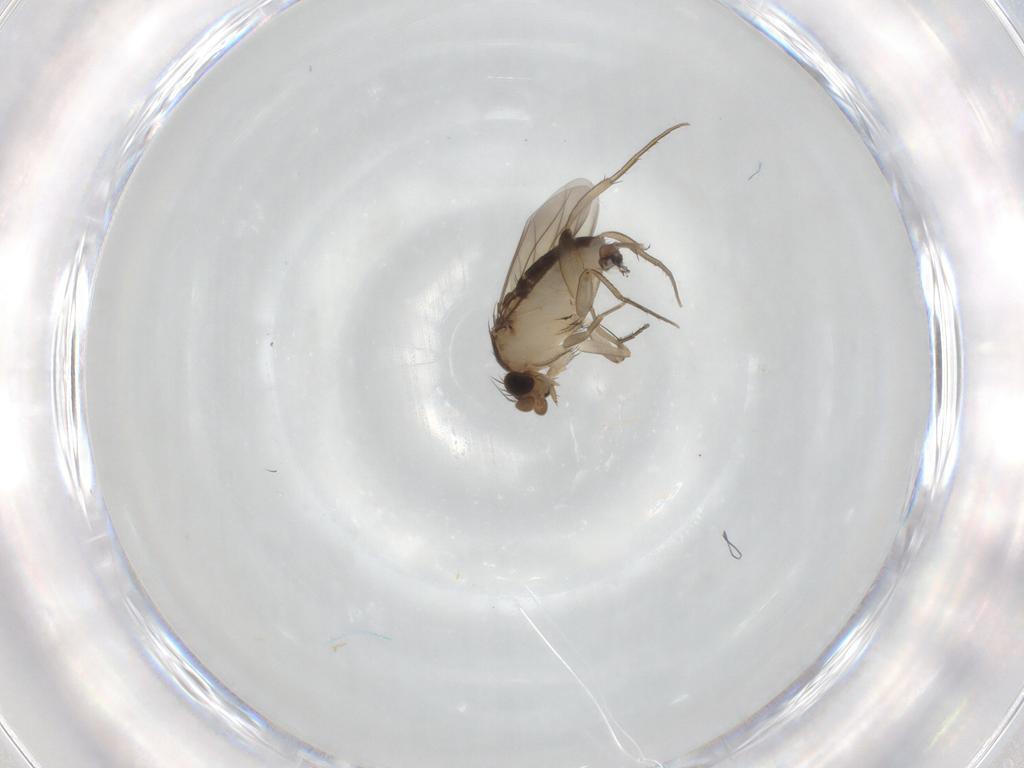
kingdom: Animalia
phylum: Arthropoda
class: Insecta
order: Diptera
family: Phoridae
